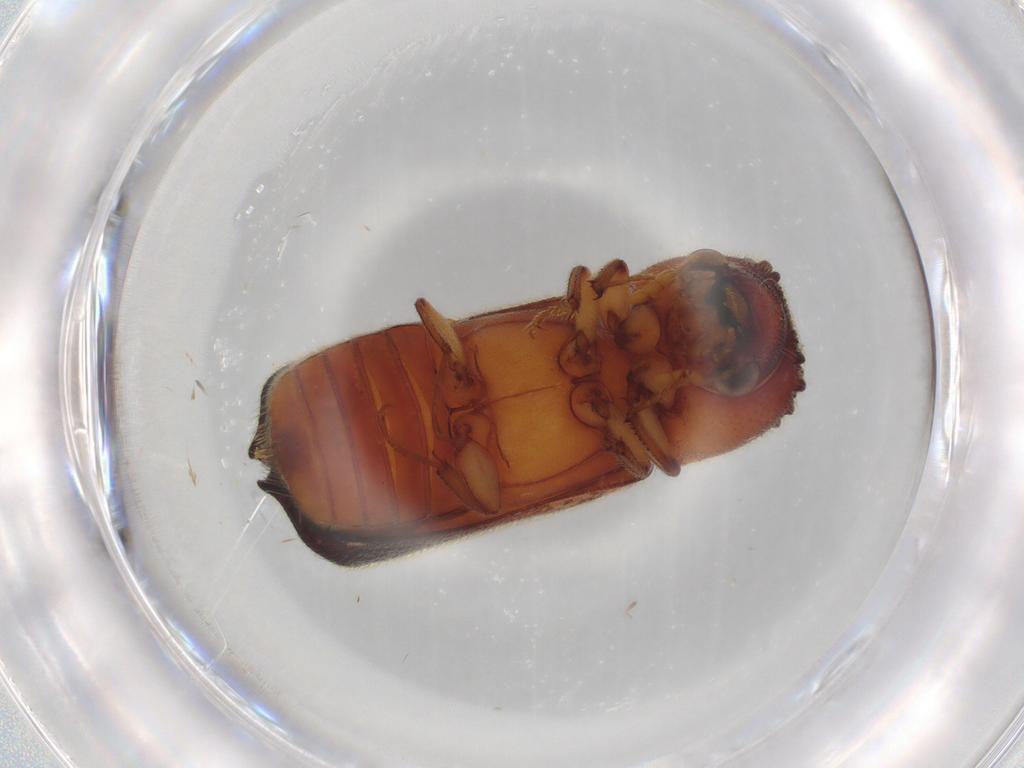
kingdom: Animalia
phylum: Arthropoda
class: Insecta
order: Coleoptera
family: Bostrichidae
